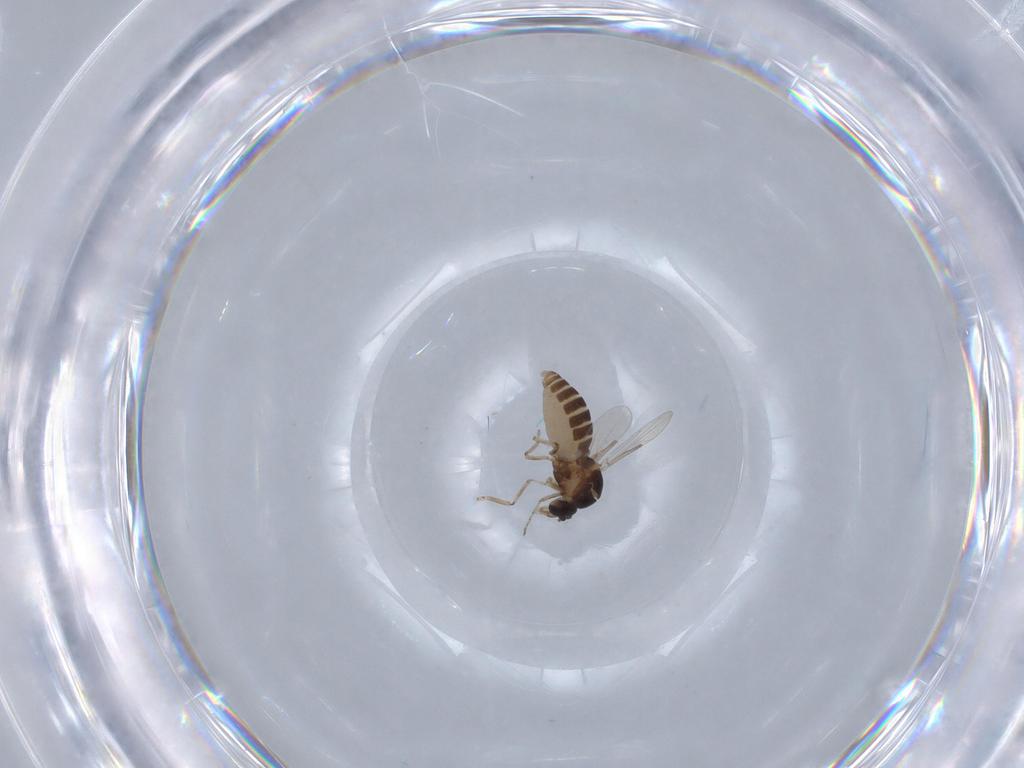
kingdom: Animalia
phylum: Arthropoda
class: Insecta
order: Diptera
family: Ceratopogonidae
